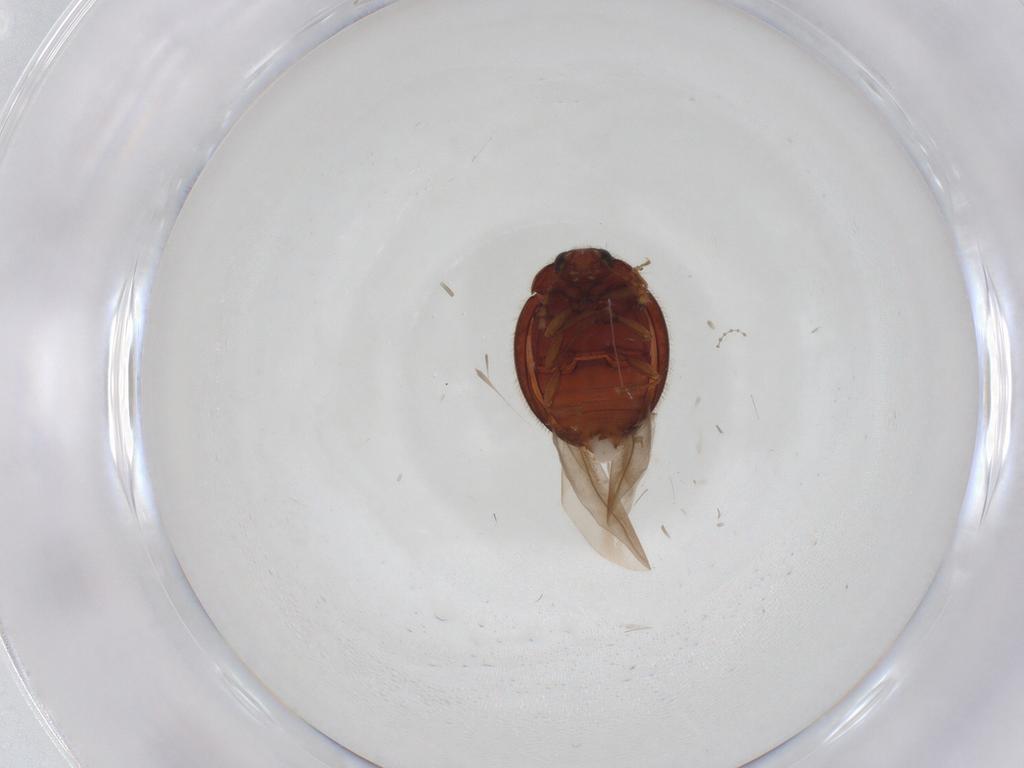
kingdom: Animalia
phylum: Arthropoda
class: Insecta
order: Coleoptera
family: Anamorphidae
